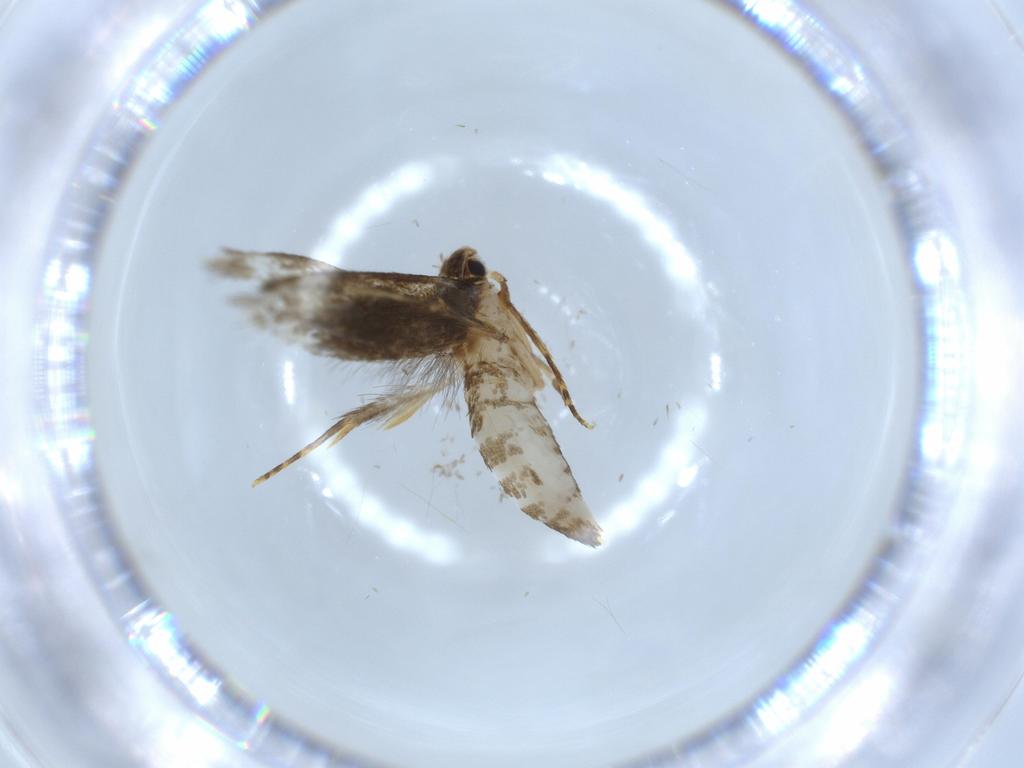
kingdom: Animalia
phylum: Arthropoda
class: Insecta
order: Lepidoptera
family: Tineidae
